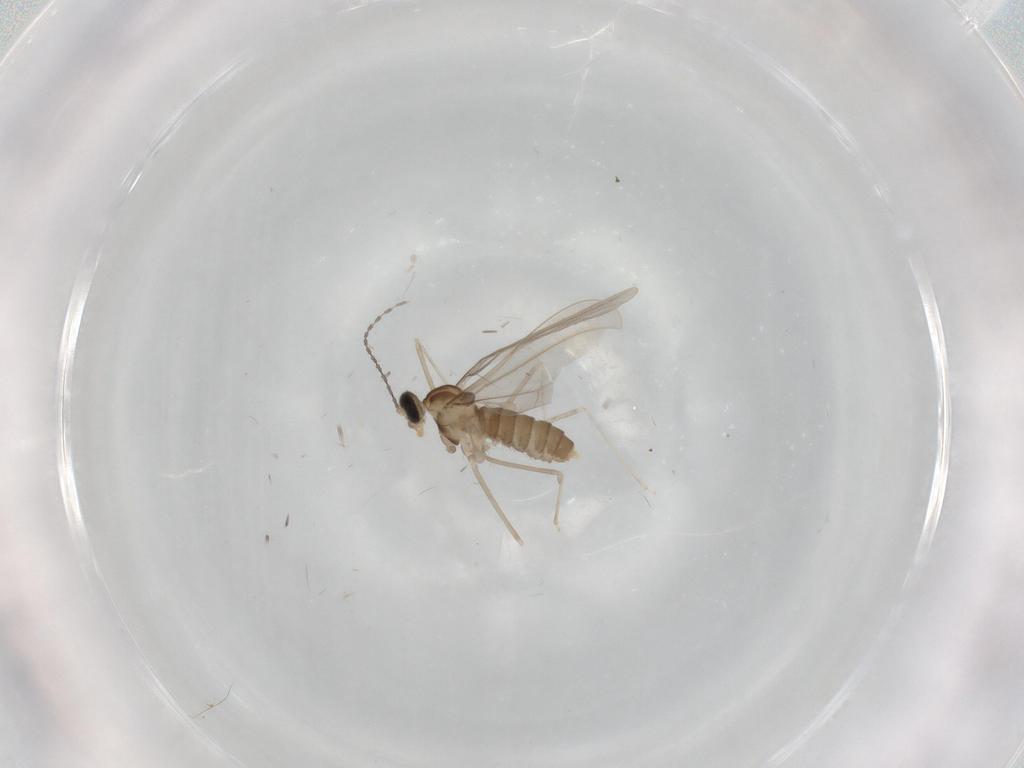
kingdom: Animalia
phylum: Arthropoda
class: Insecta
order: Diptera
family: Cecidomyiidae
